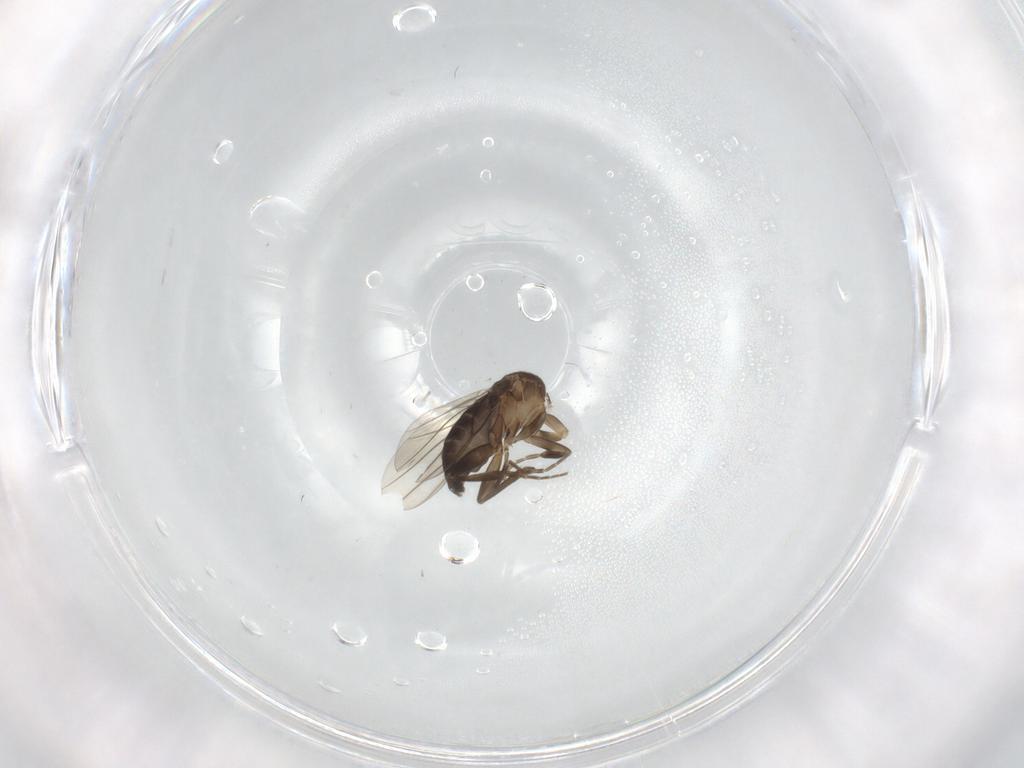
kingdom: Animalia
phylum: Arthropoda
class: Insecta
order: Diptera
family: Phoridae
